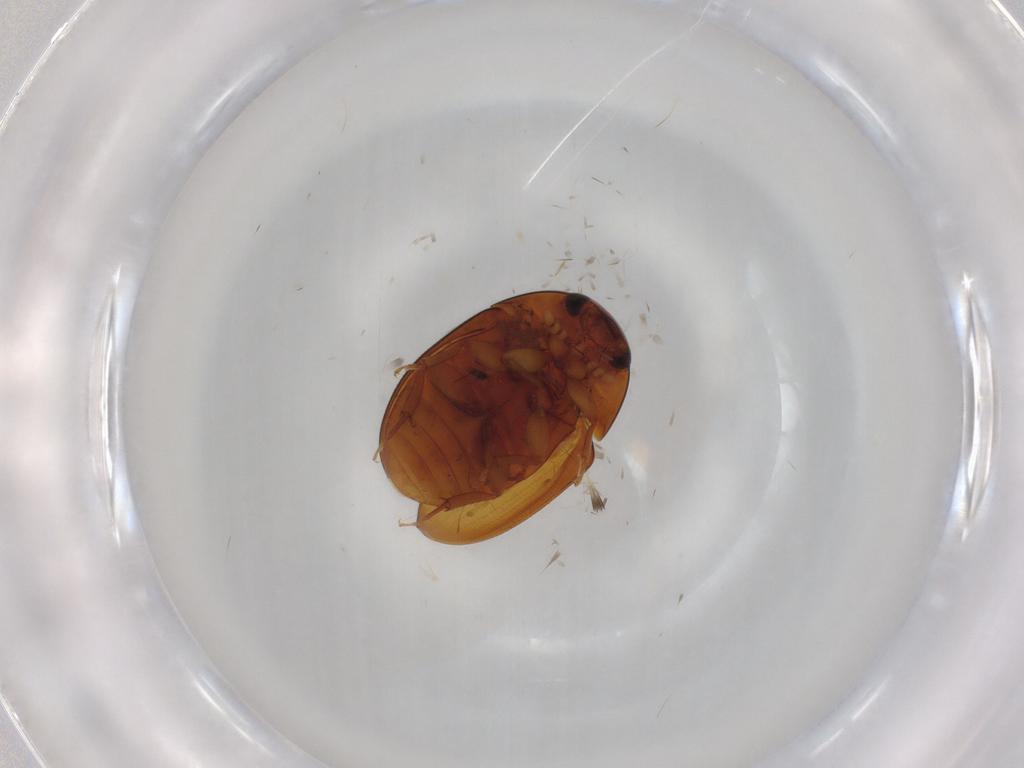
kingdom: Animalia
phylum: Arthropoda
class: Insecta
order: Coleoptera
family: Phalacridae
